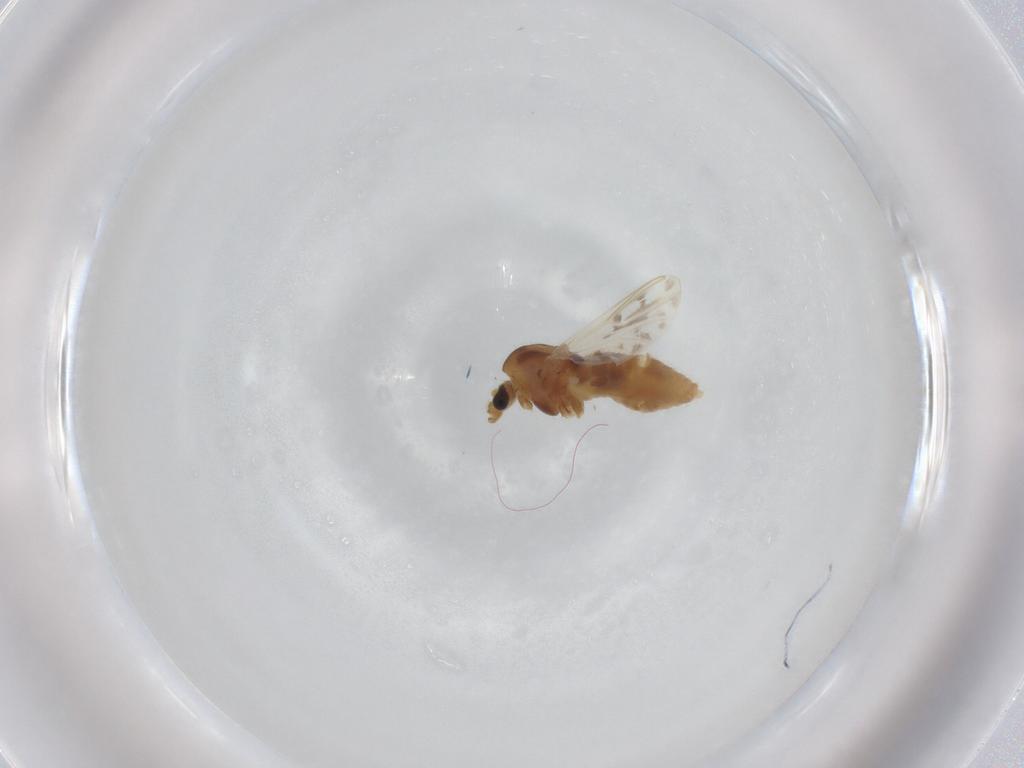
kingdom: Animalia
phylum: Arthropoda
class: Insecta
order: Diptera
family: Chironomidae
